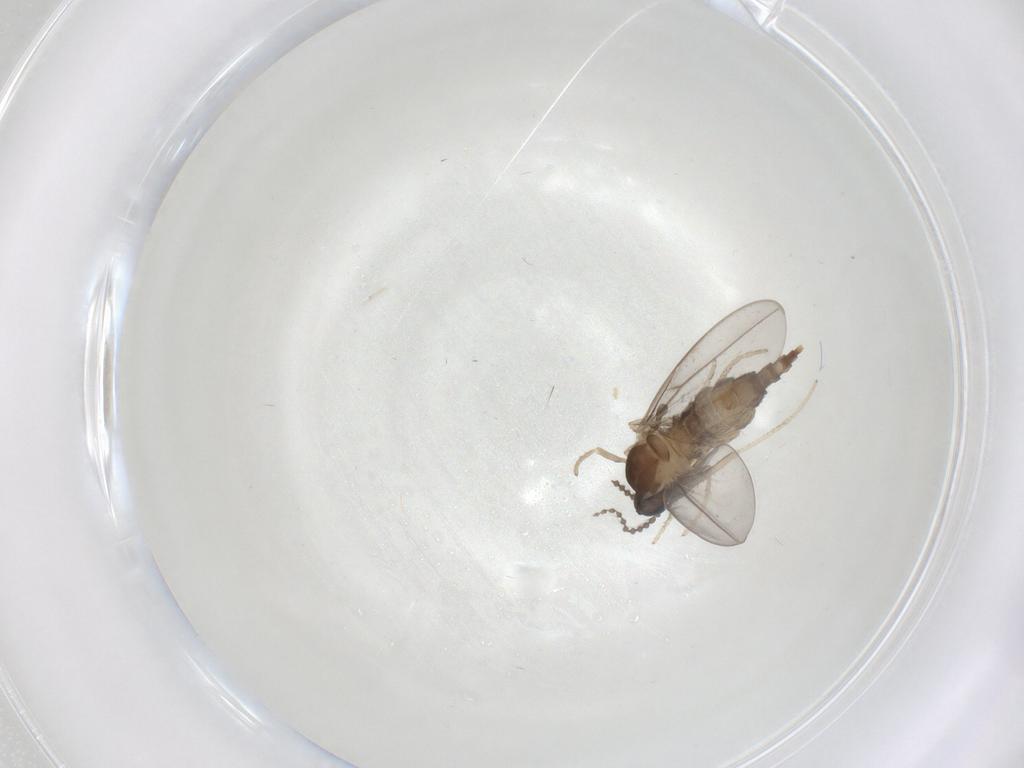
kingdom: Animalia
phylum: Arthropoda
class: Insecta
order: Diptera
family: Cecidomyiidae
